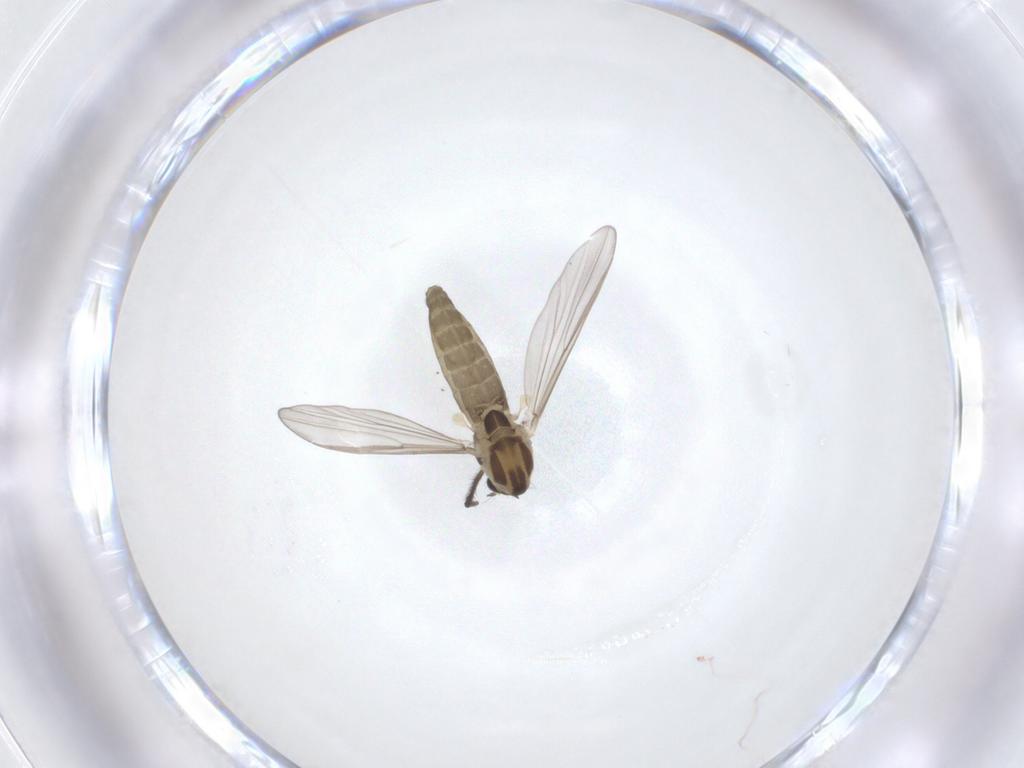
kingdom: Animalia
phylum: Arthropoda
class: Insecta
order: Diptera
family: Chironomidae
